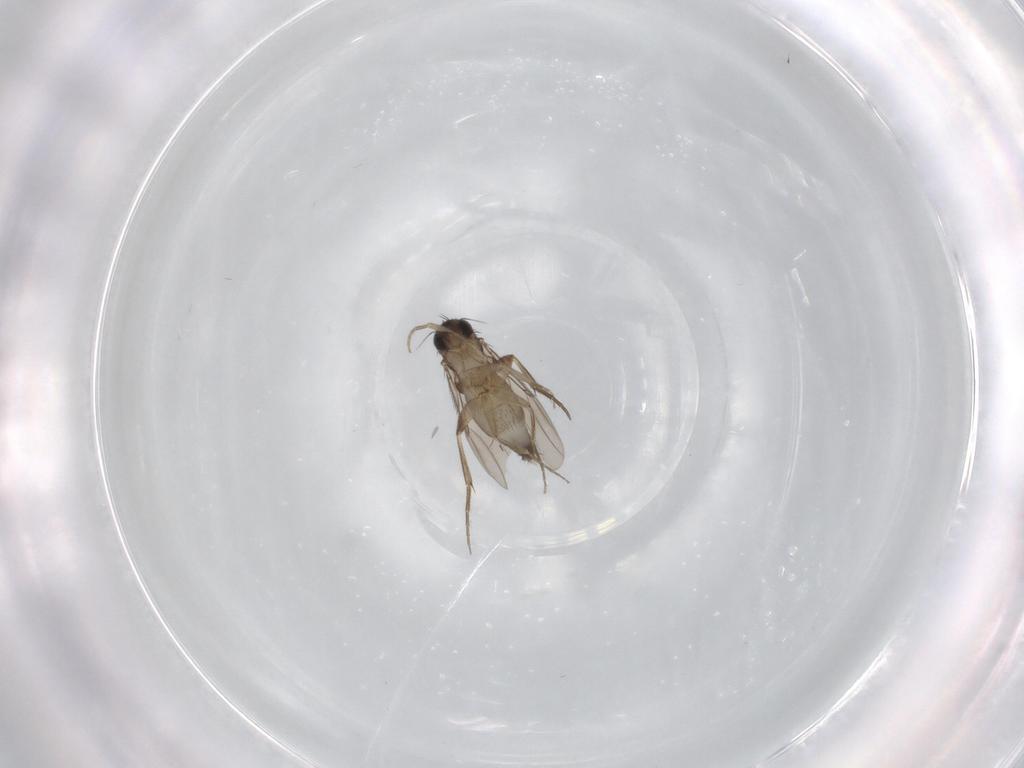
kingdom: Animalia
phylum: Arthropoda
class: Insecta
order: Diptera
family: Phoridae
